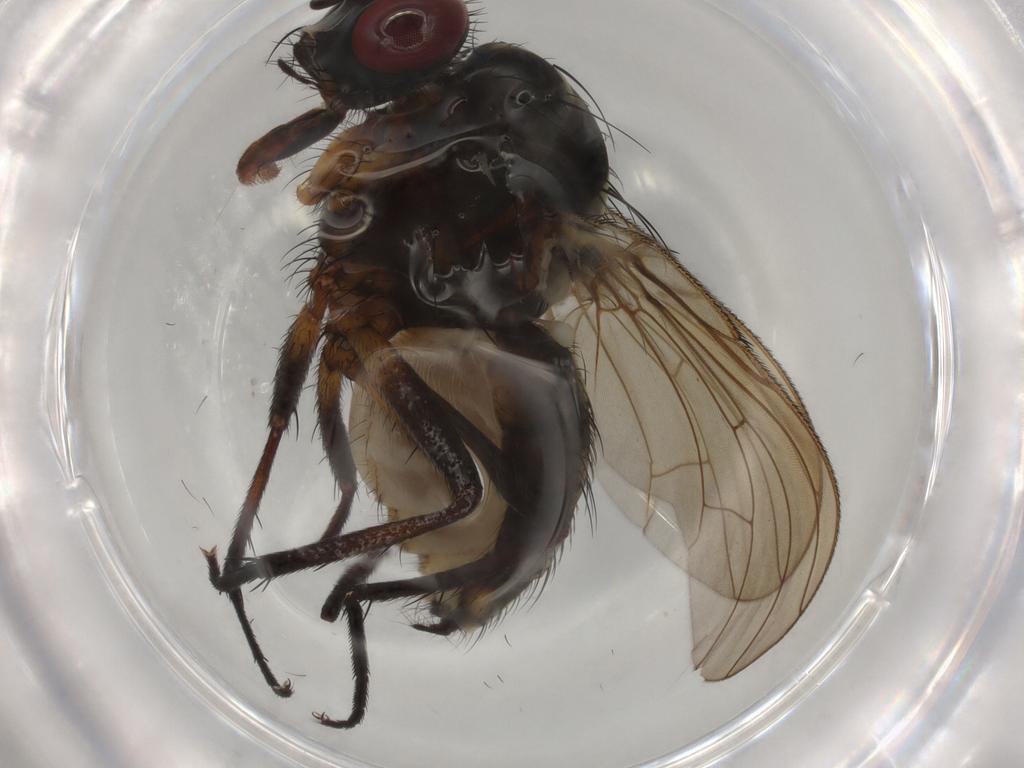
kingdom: Animalia
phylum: Arthropoda
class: Insecta
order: Diptera
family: Anthomyiidae
